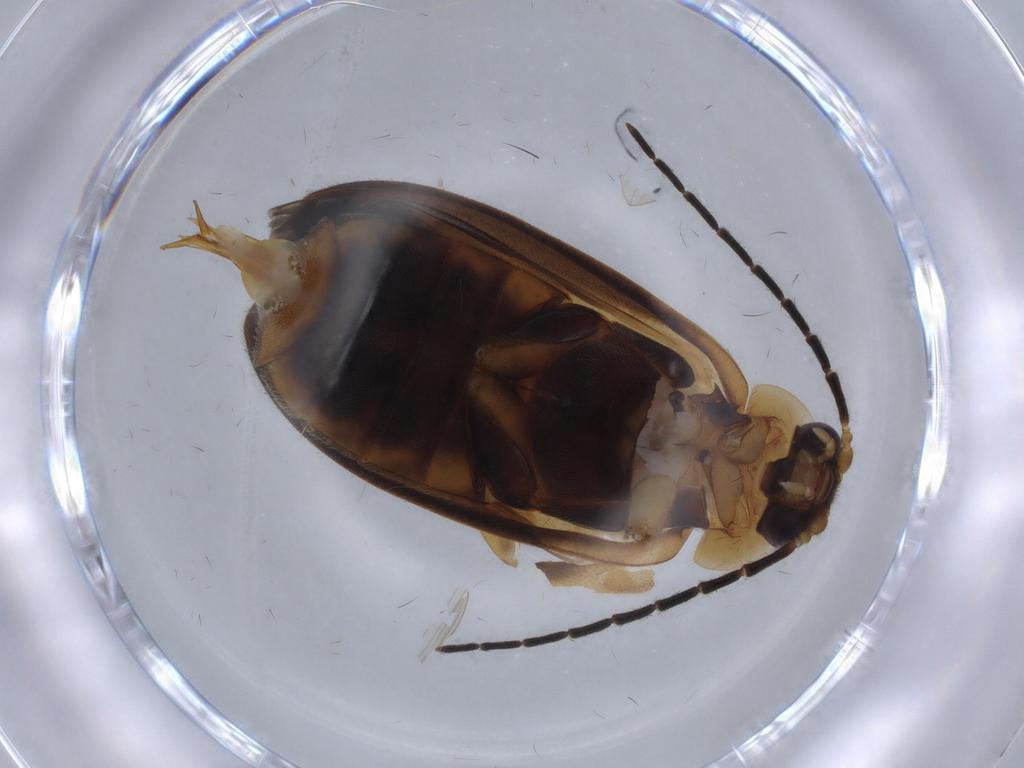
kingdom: Animalia
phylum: Arthropoda
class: Insecta
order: Coleoptera
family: Scirtidae
